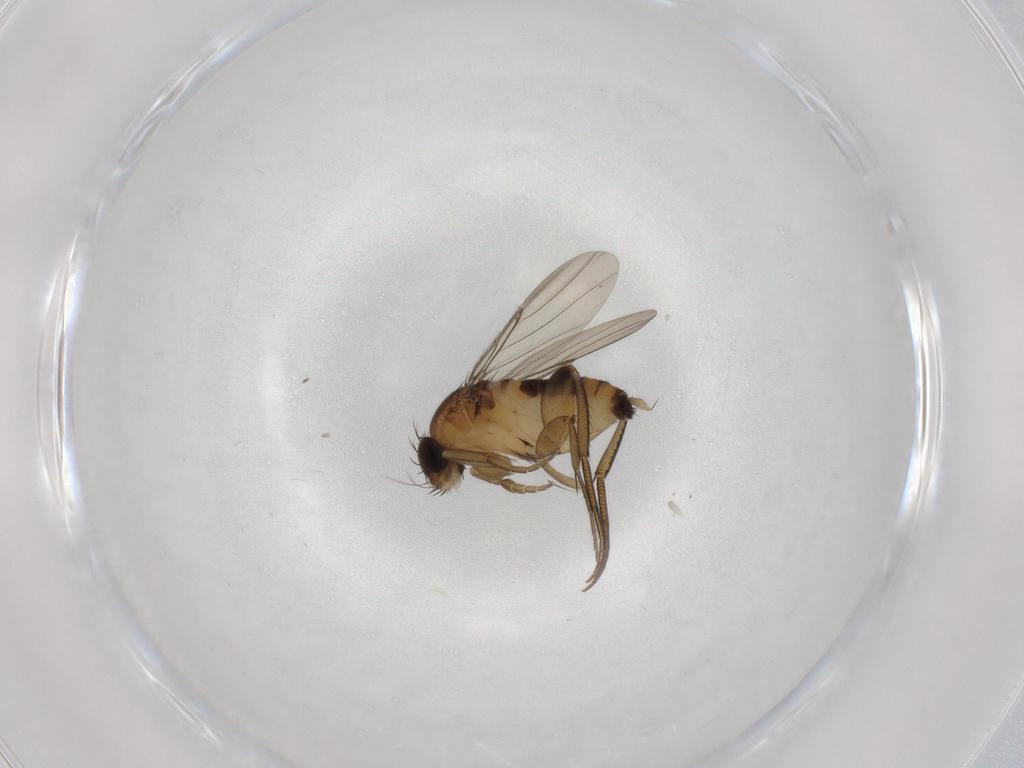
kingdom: Animalia
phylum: Arthropoda
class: Insecta
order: Diptera
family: Phoridae
